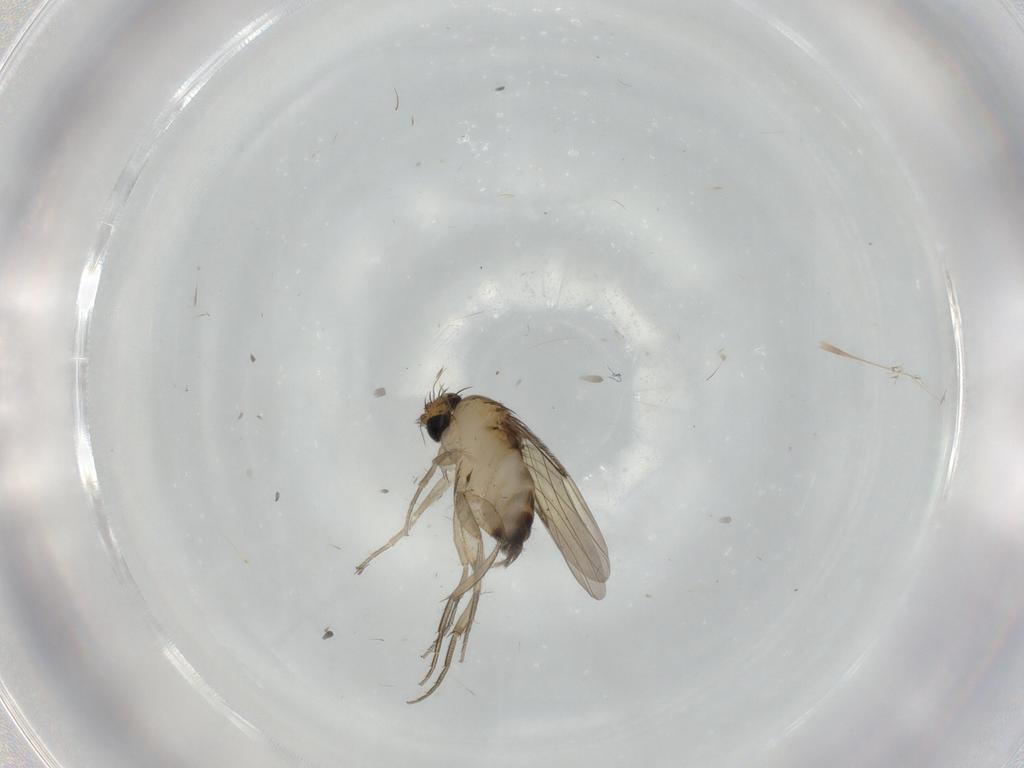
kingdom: Animalia
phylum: Arthropoda
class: Insecta
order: Diptera
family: Phoridae
